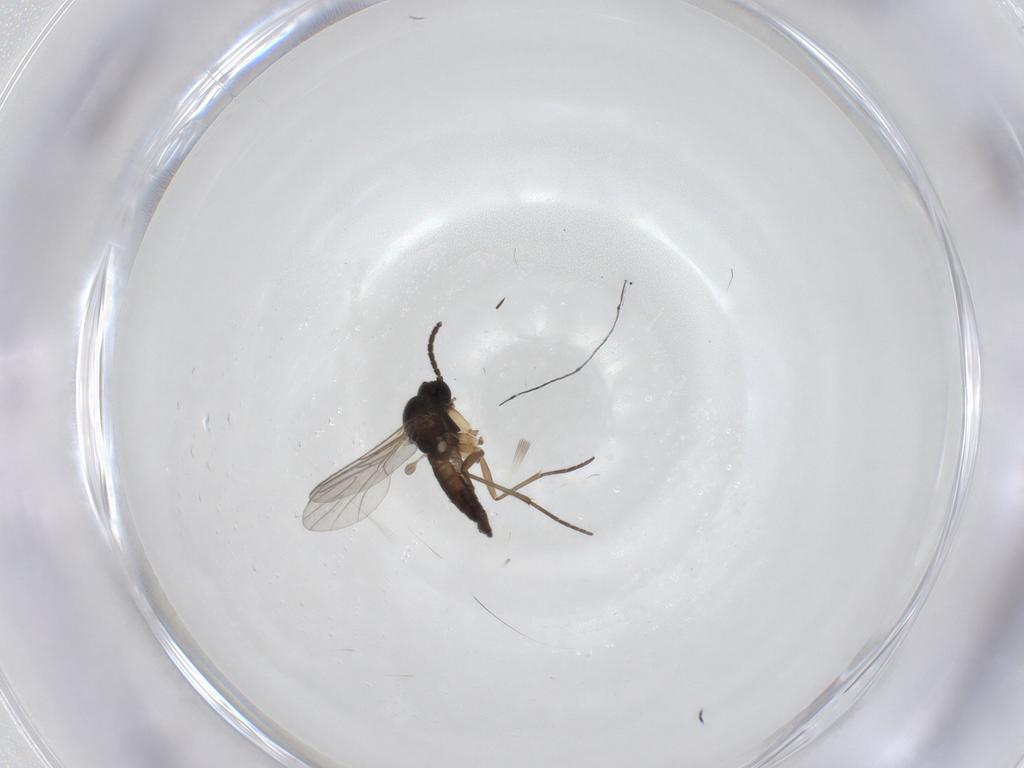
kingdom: Animalia
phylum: Arthropoda
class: Insecta
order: Diptera
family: Sciaridae
